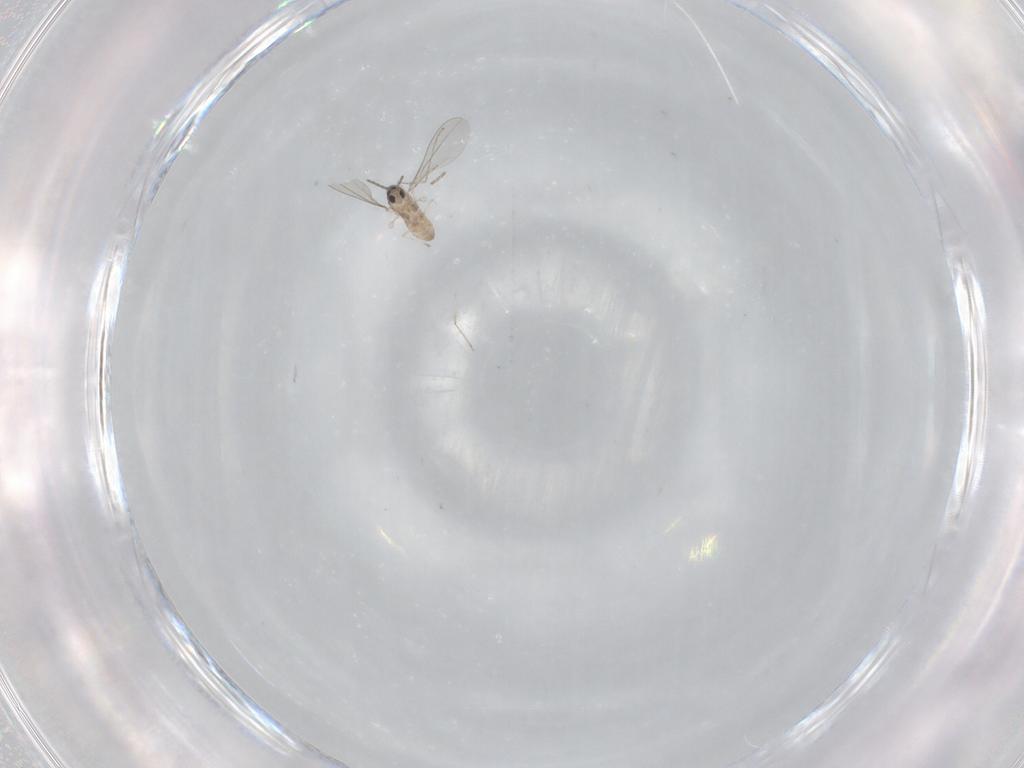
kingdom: Animalia
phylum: Arthropoda
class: Insecta
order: Diptera
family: Cecidomyiidae
